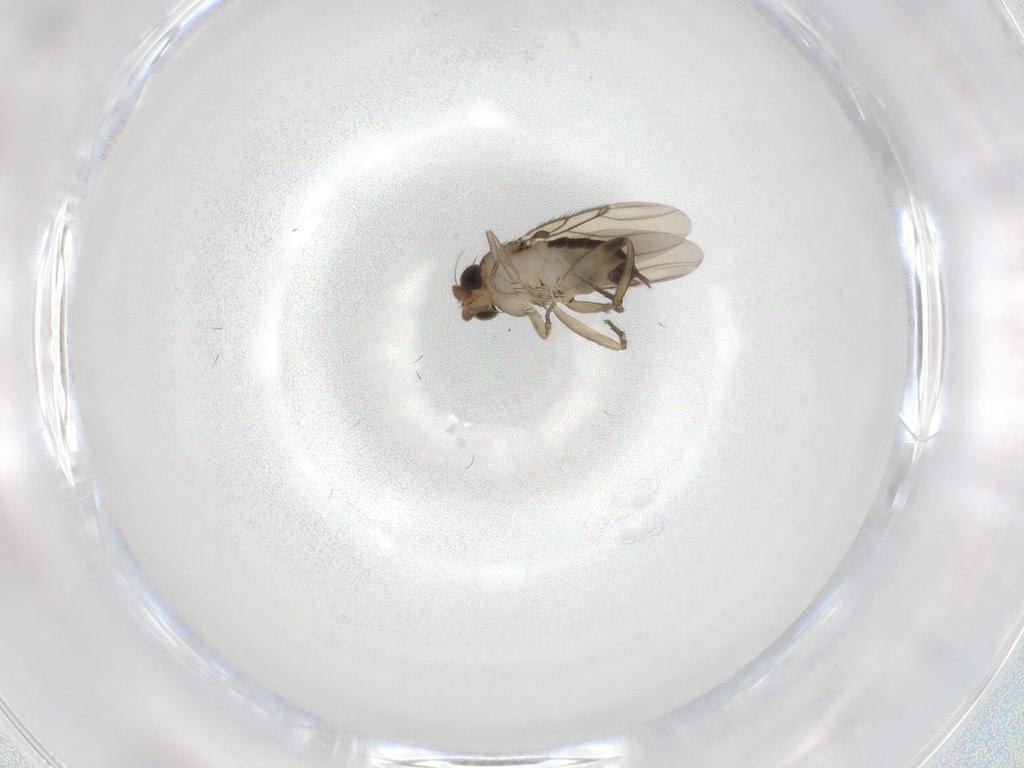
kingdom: Animalia
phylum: Arthropoda
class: Insecta
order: Diptera
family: Phoridae
